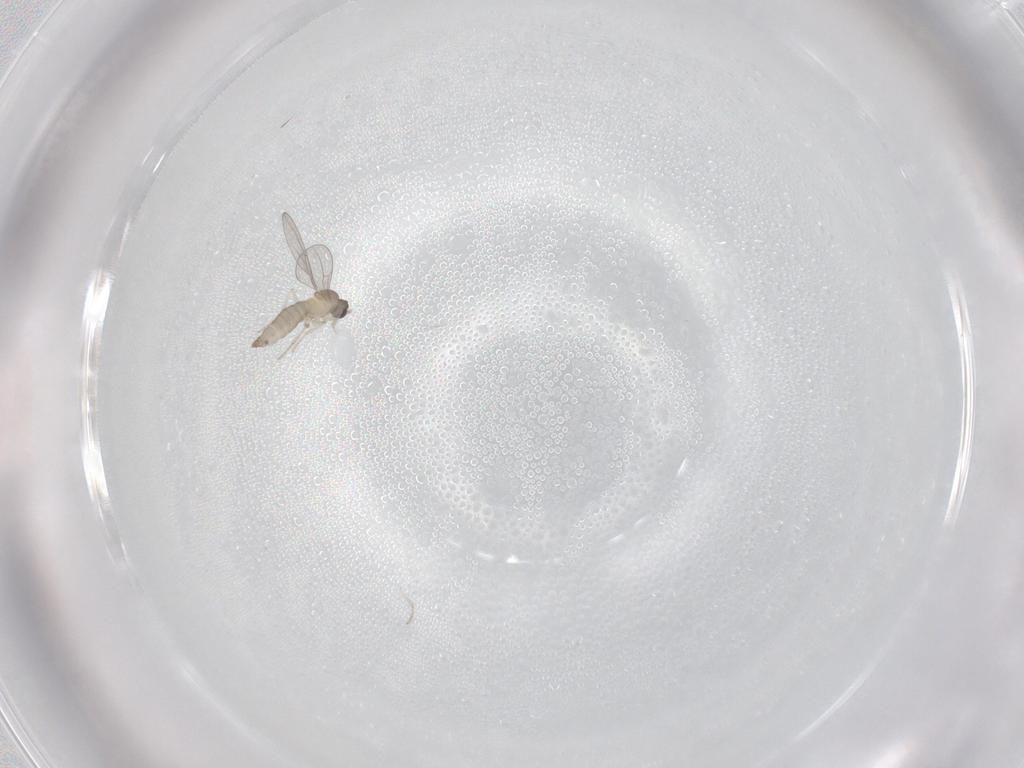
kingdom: Animalia
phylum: Arthropoda
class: Insecta
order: Diptera
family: Cecidomyiidae
